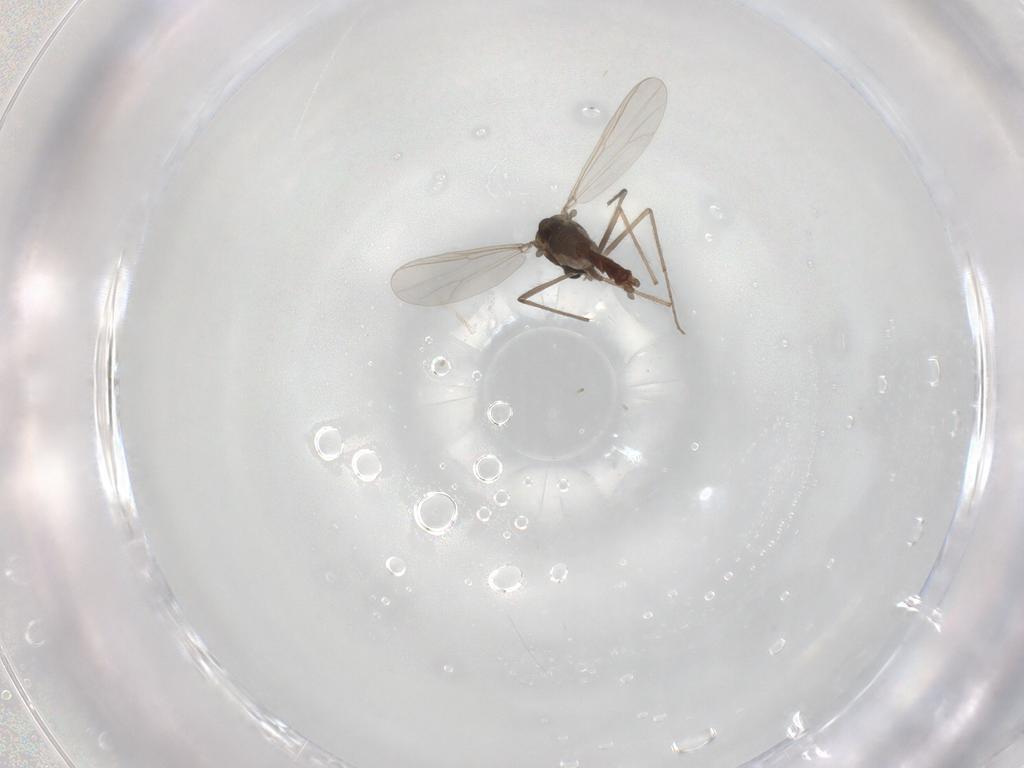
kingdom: Animalia
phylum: Arthropoda
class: Insecta
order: Diptera
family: Chironomidae
